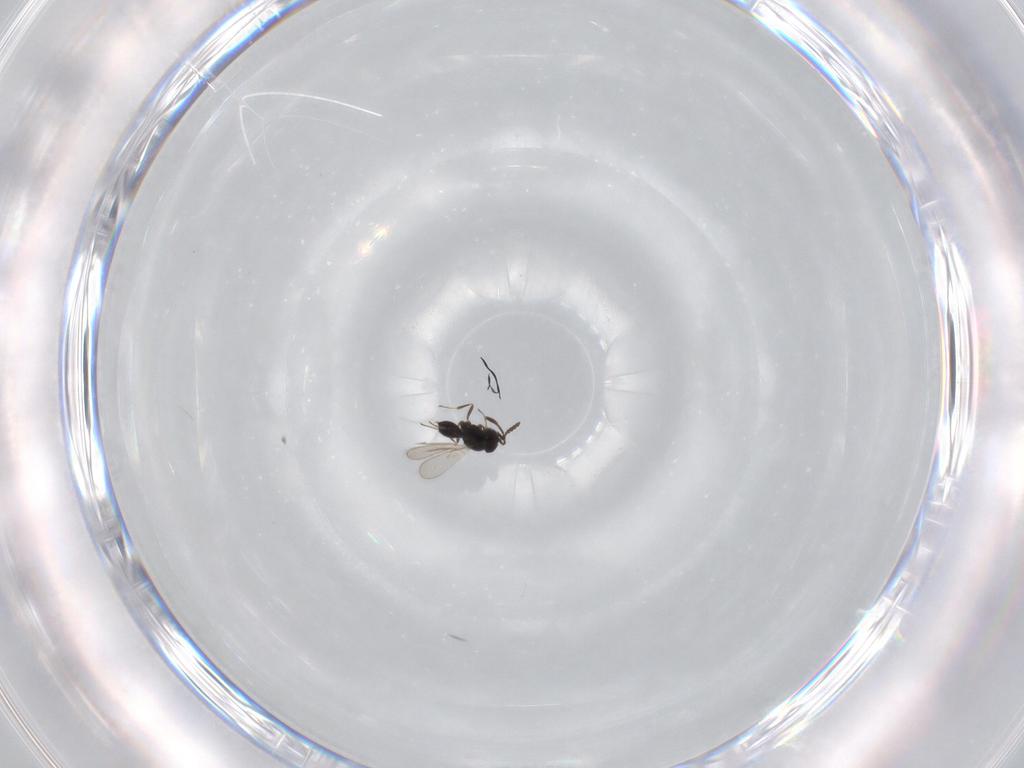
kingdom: Animalia
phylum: Arthropoda
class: Insecta
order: Hymenoptera
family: Scelionidae
